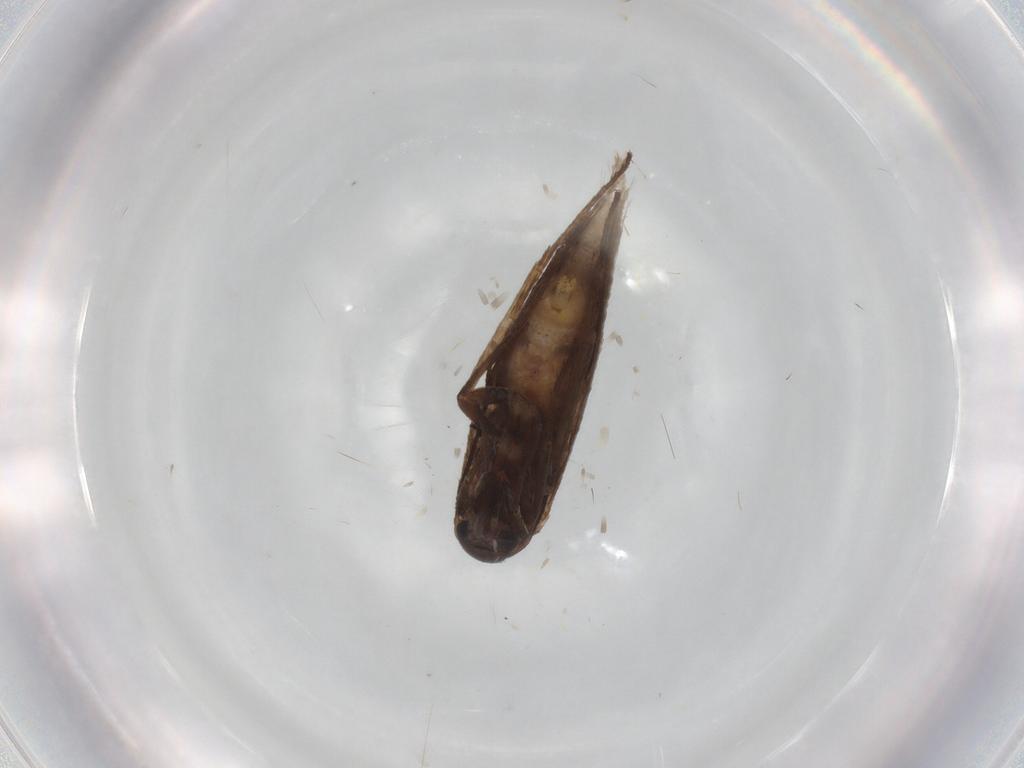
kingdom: Animalia
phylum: Arthropoda
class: Insecta
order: Lepidoptera
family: Scythrididae
